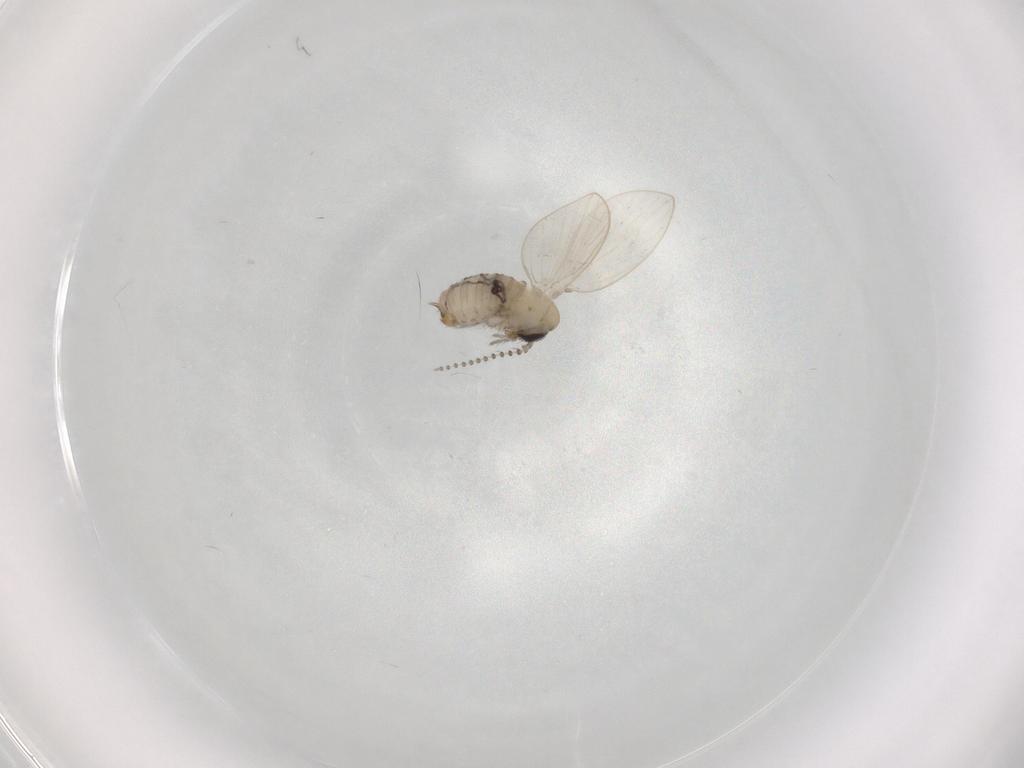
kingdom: Animalia
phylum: Arthropoda
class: Insecta
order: Diptera
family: Psychodidae
